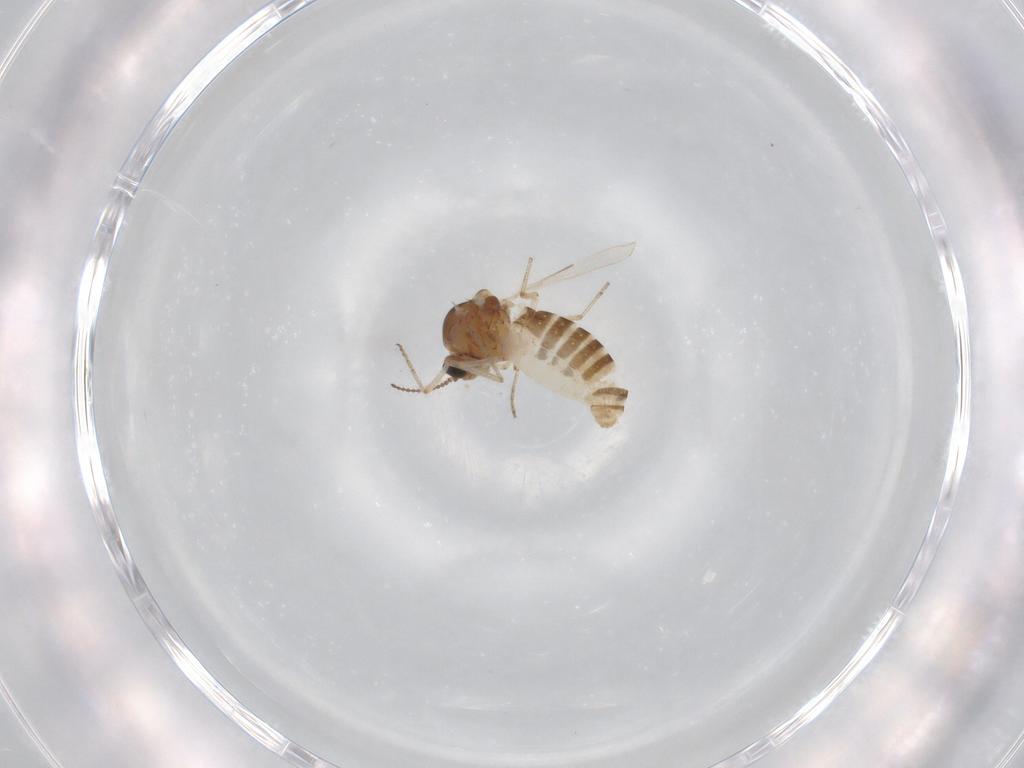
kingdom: Animalia
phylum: Arthropoda
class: Insecta
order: Diptera
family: Ceratopogonidae
